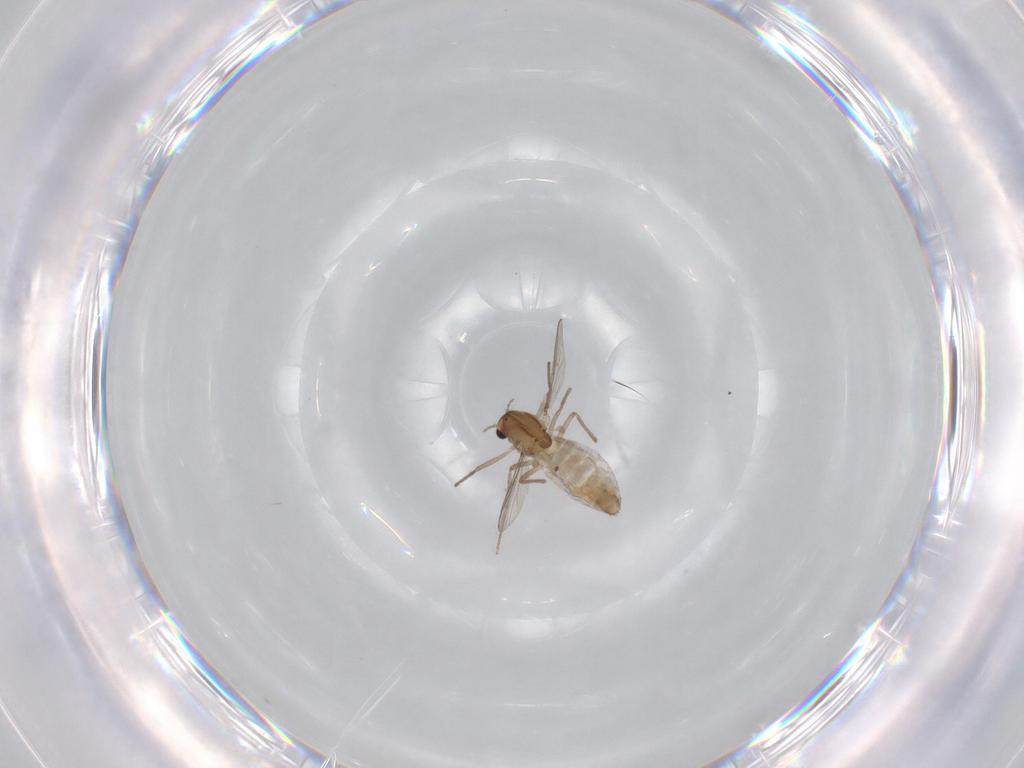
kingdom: Animalia
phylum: Arthropoda
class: Insecta
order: Diptera
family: Chironomidae
